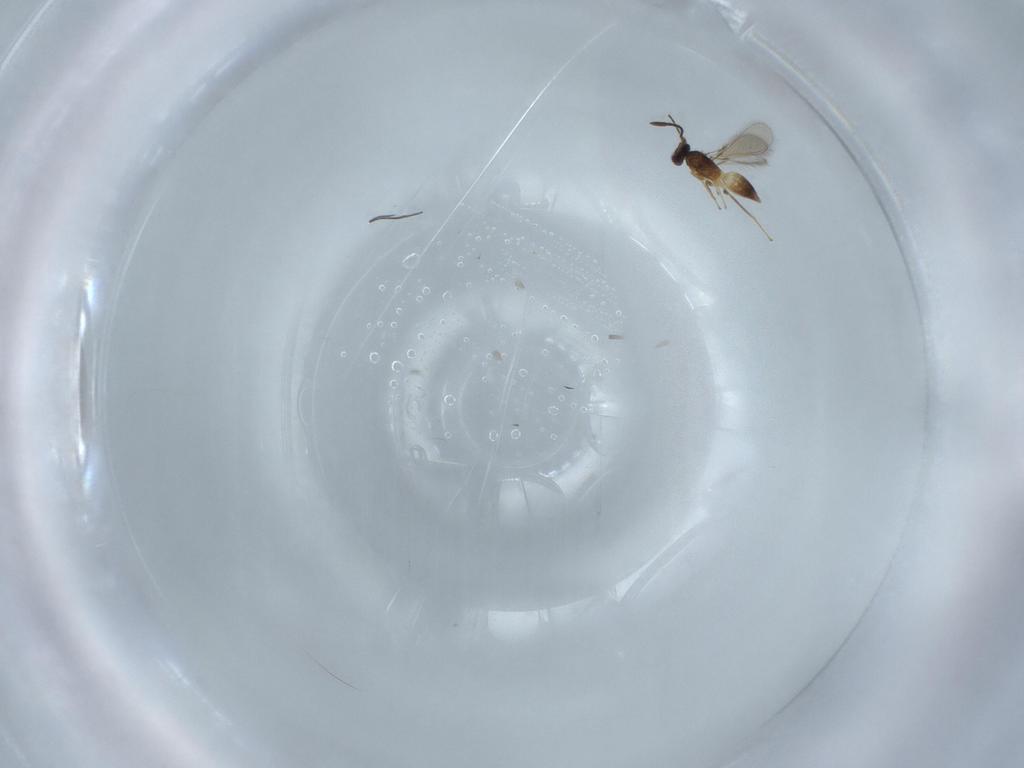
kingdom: Animalia
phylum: Arthropoda
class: Insecta
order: Hymenoptera
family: Mymaridae
